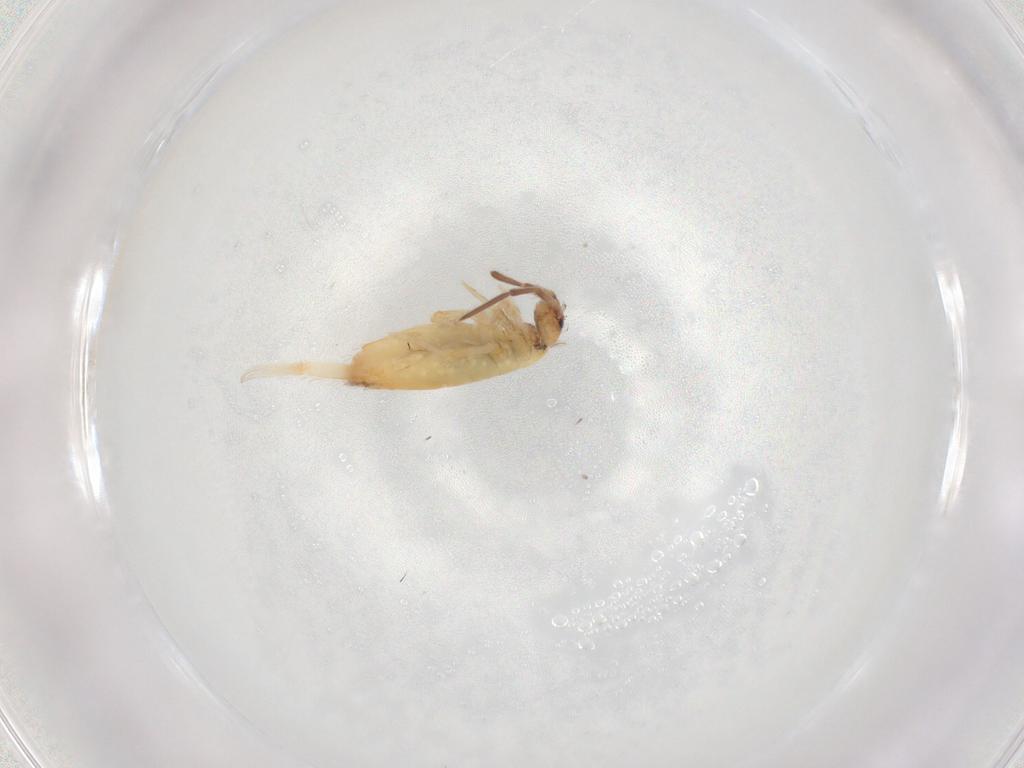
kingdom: Animalia
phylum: Arthropoda
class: Collembola
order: Entomobryomorpha
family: Entomobryidae
